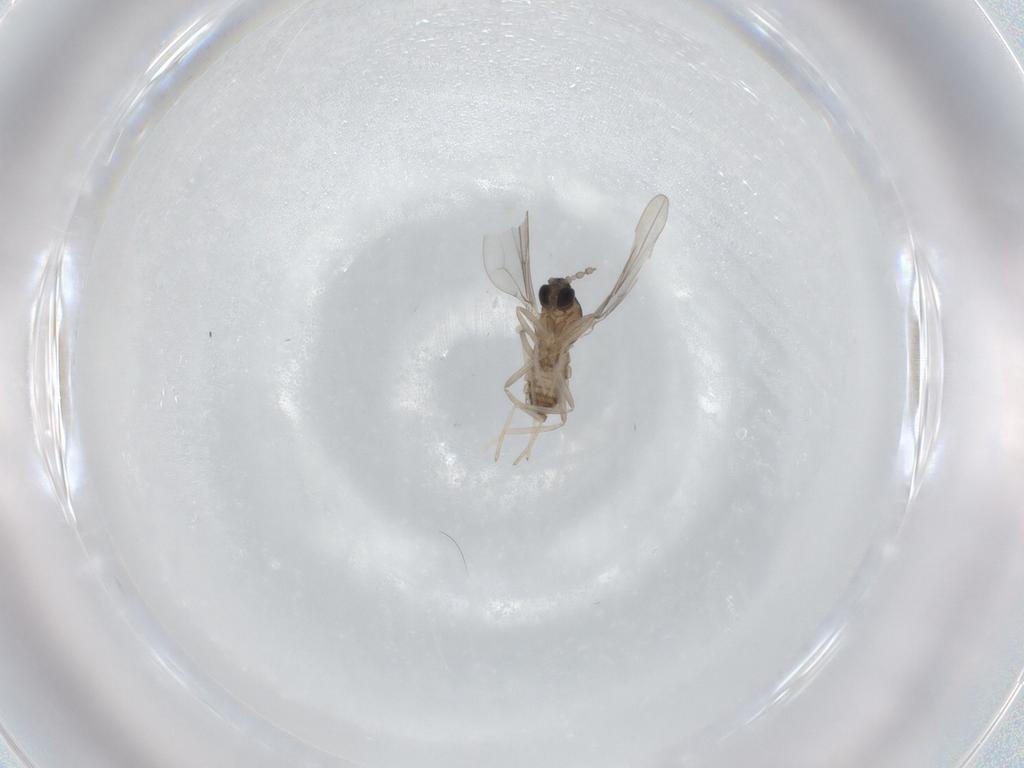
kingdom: Animalia
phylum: Arthropoda
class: Insecta
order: Diptera
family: Cecidomyiidae
